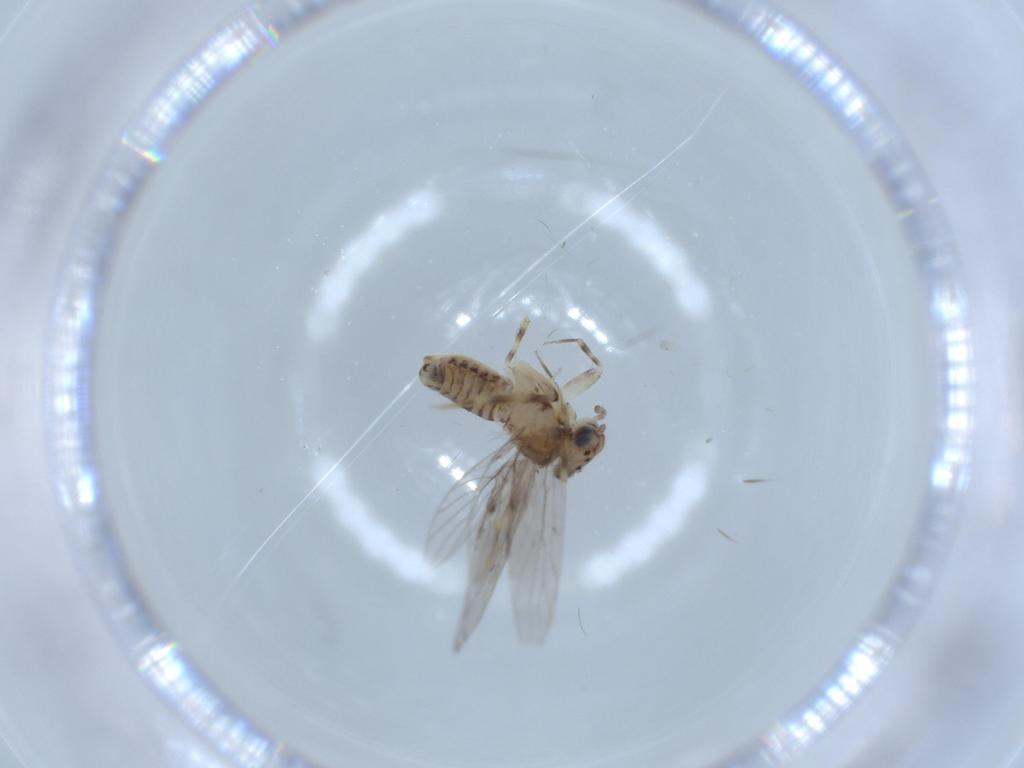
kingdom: Animalia
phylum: Arthropoda
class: Insecta
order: Psocodea
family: Lepidopsocidae
